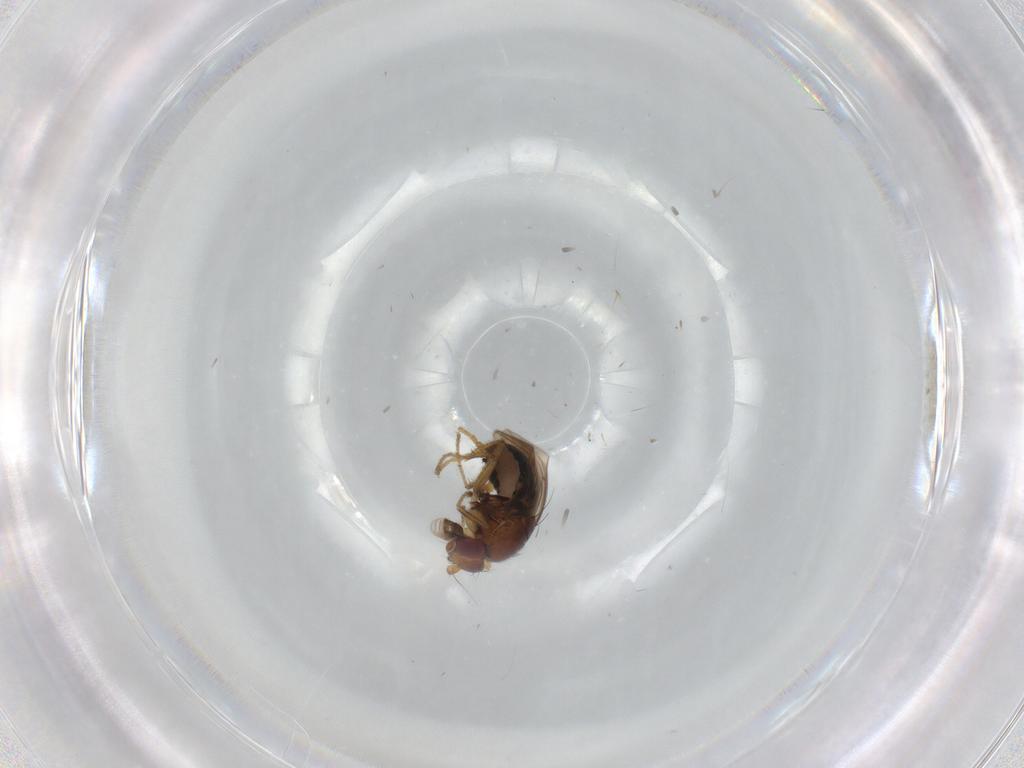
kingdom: Animalia
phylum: Arthropoda
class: Insecta
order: Diptera
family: Sphaeroceridae
